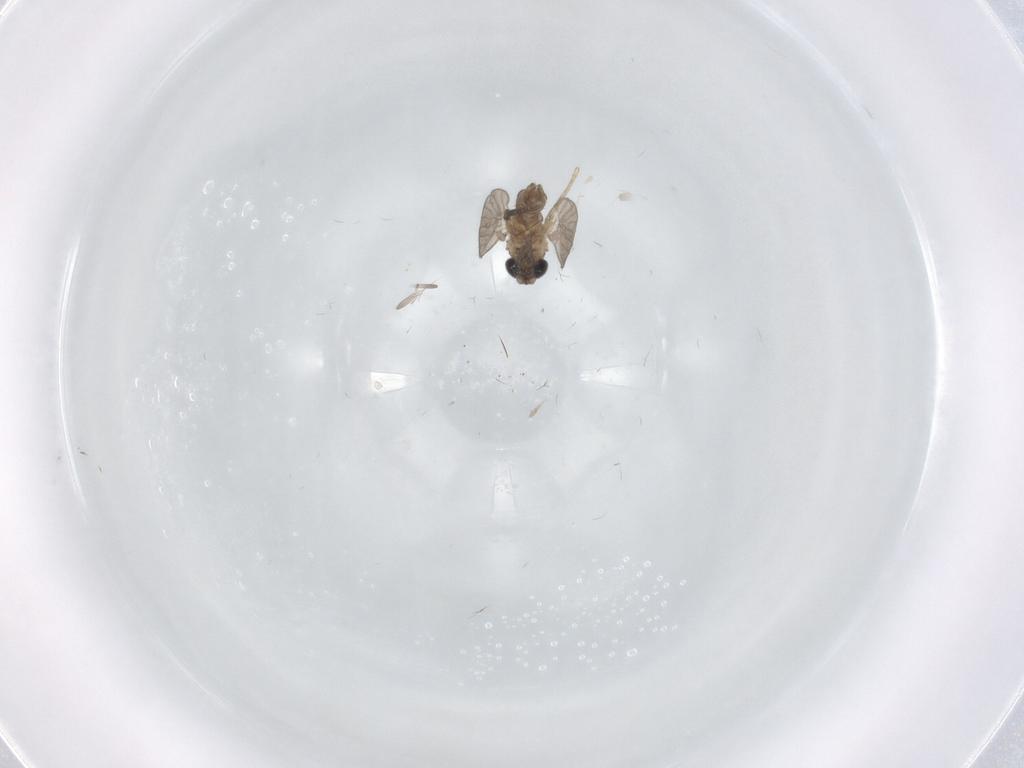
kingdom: Animalia
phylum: Arthropoda
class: Insecta
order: Diptera
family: Psychodidae
